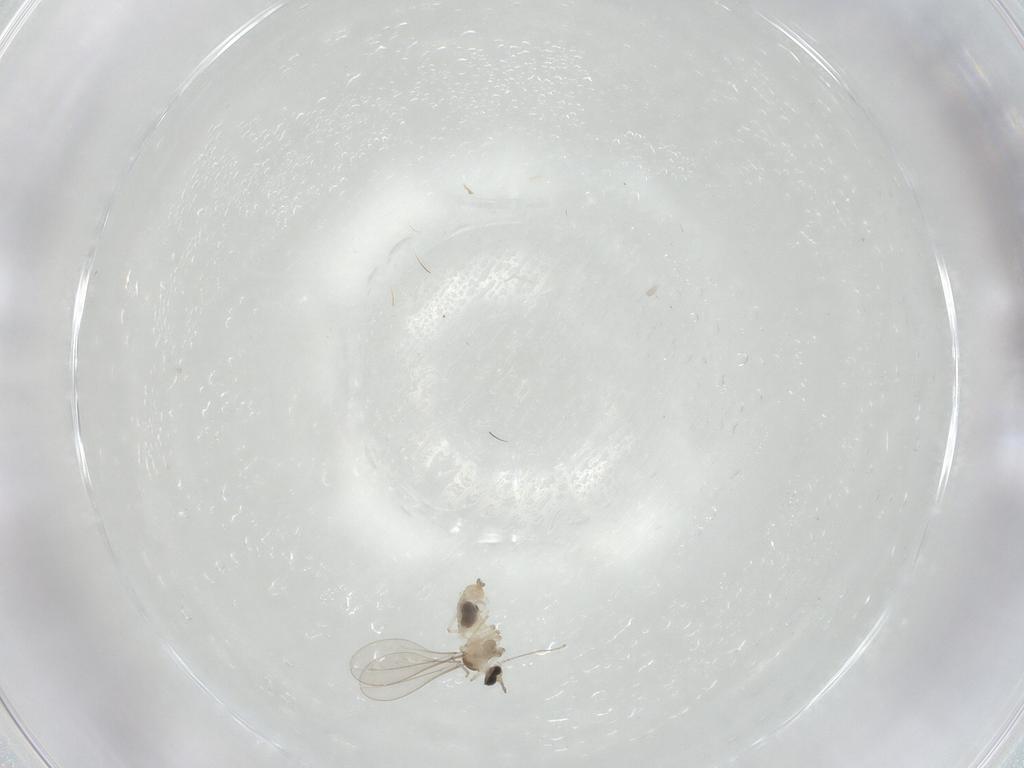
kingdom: Animalia
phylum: Arthropoda
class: Insecta
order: Diptera
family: Cecidomyiidae
